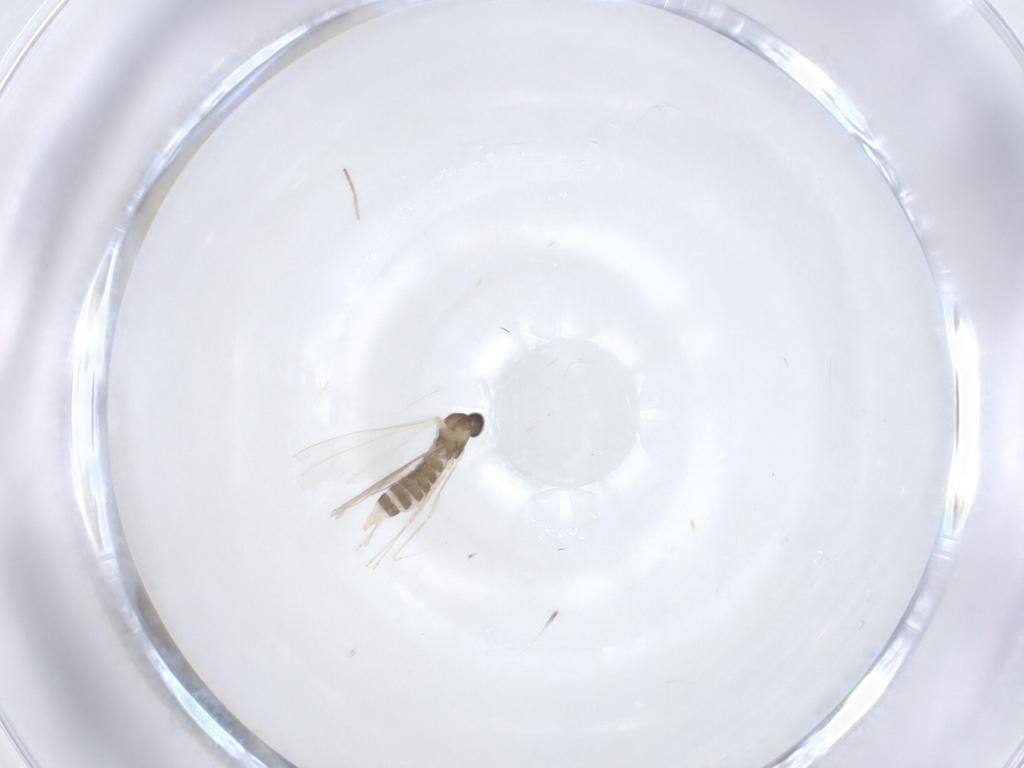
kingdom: Animalia
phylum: Arthropoda
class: Insecta
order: Diptera
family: Cecidomyiidae
